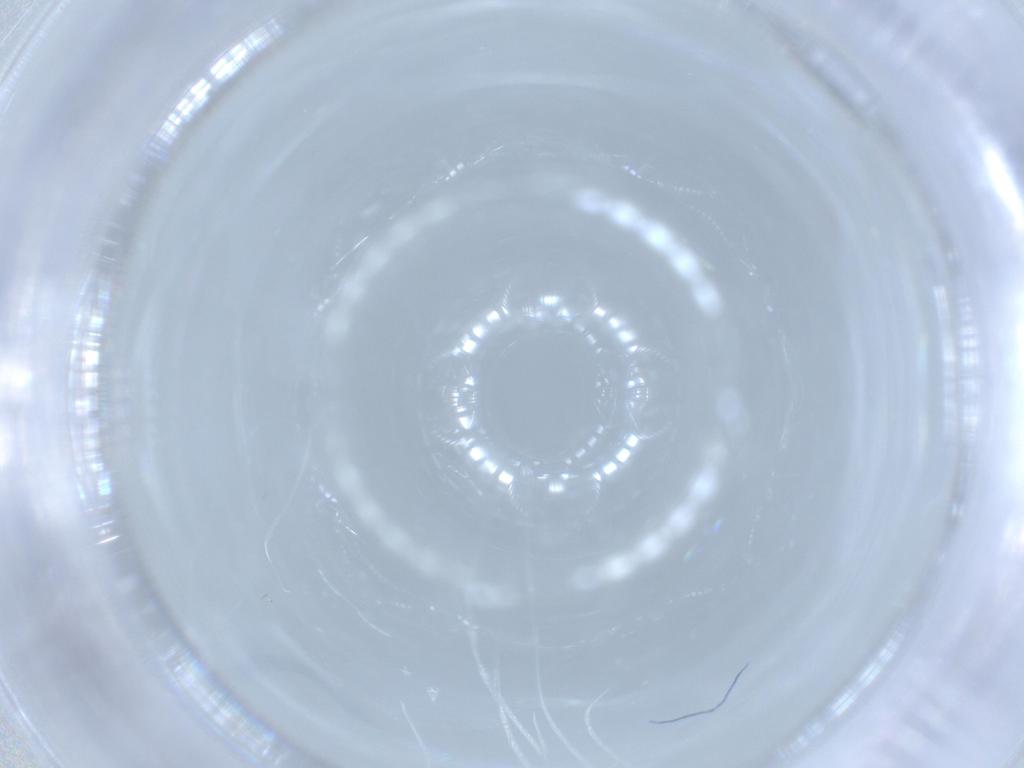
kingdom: Animalia
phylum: Arthropoda
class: Insecta
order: Diptera
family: Cecidomyiidae
